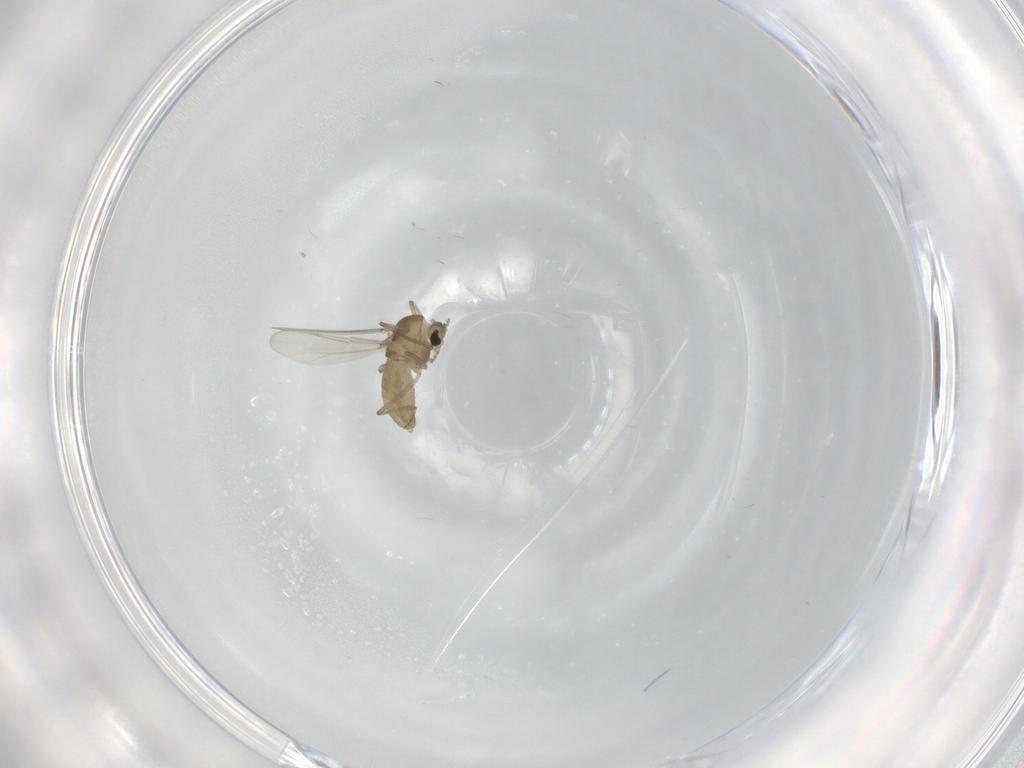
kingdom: Animalia
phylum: Arthropoda
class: Insecta
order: Diptera
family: Chironomidae
